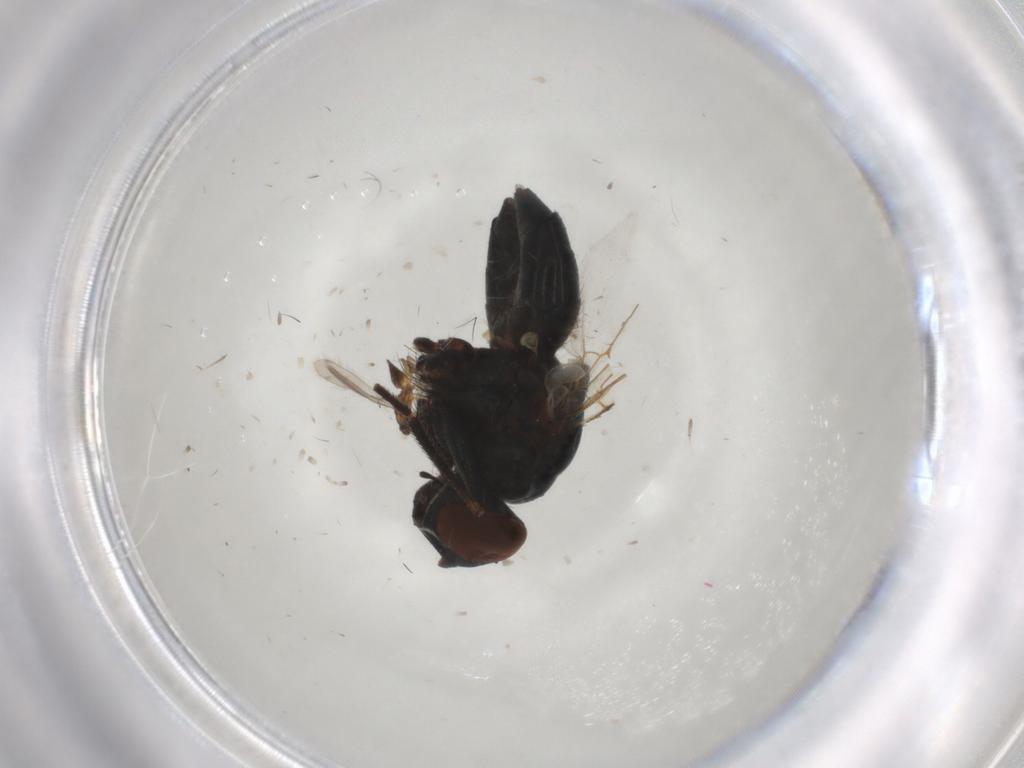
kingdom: Animalia
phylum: Arthropoda
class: Insecta
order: Diptera
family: Muscidae
